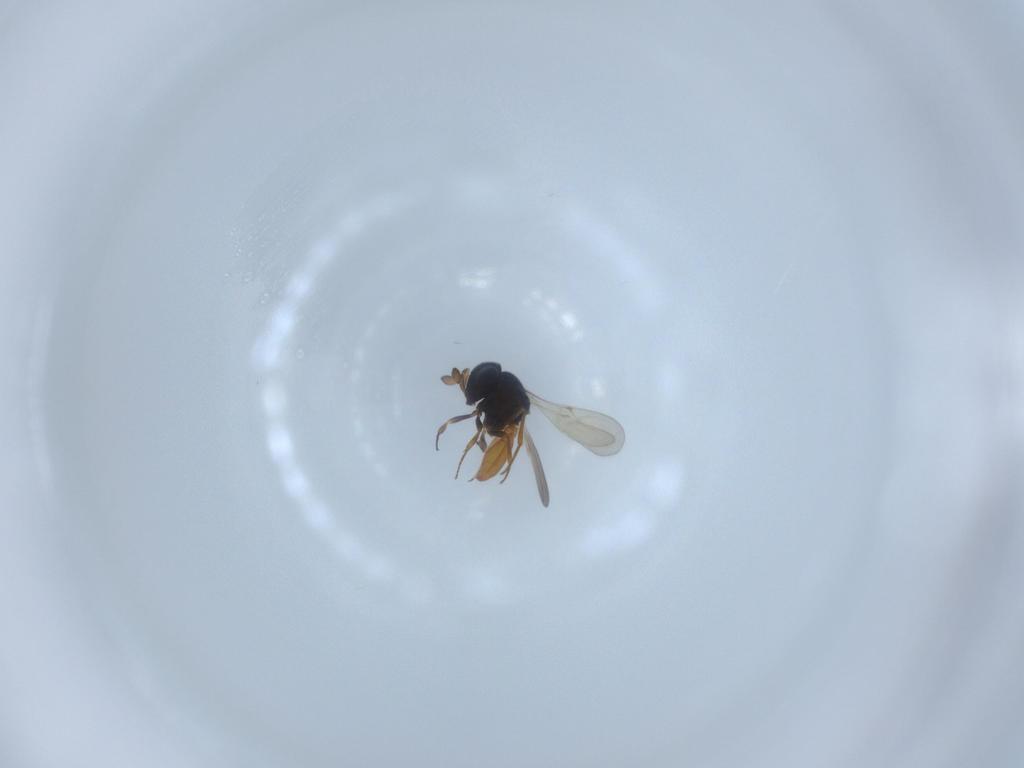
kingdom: Animalia
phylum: Arthropoda
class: Insecta
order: Hymenoptera
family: Scelionidae
